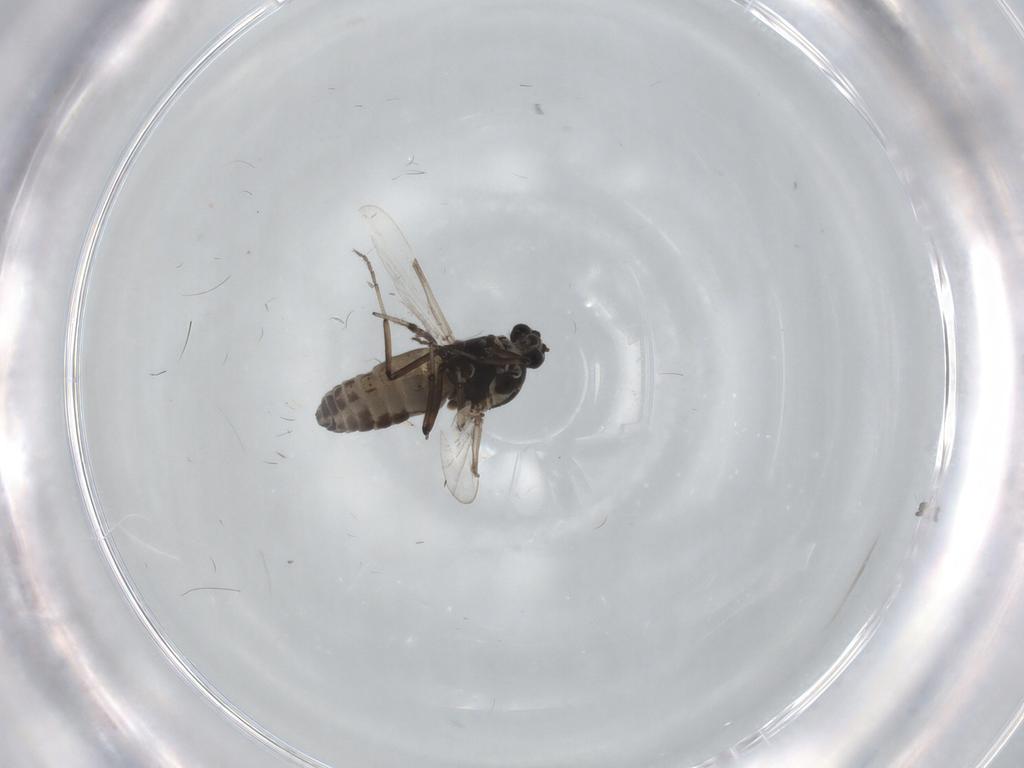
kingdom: Animalia
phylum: Arthropoda
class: Insecta
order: Diptera
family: Ceratopogonidae
